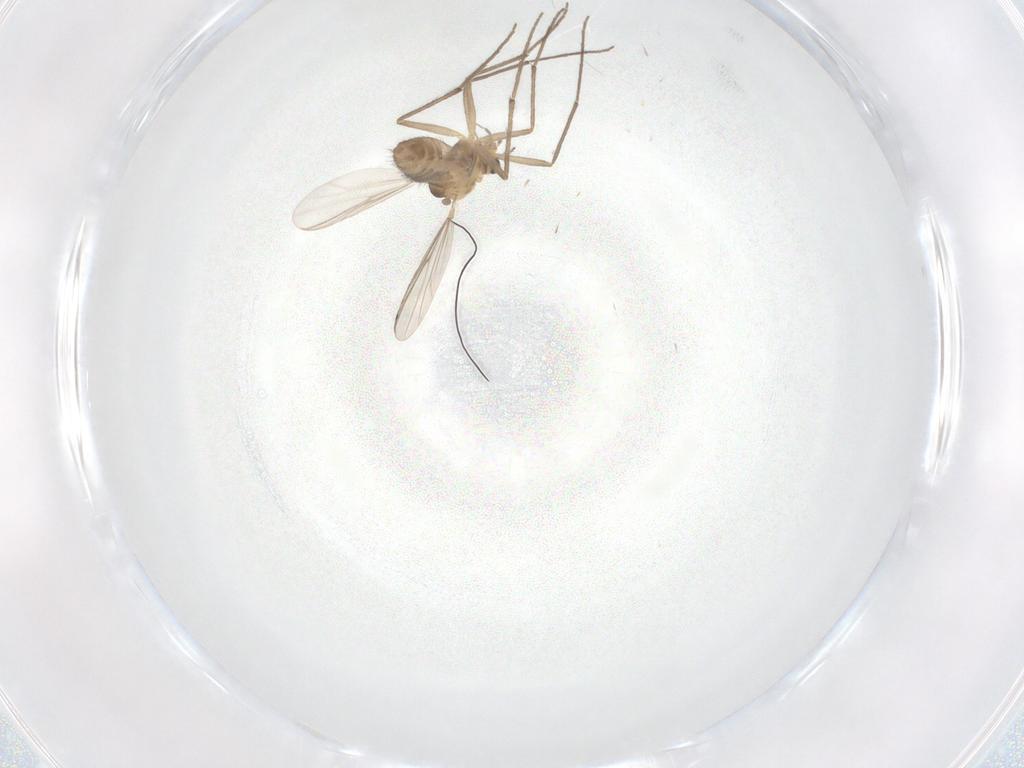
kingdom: Animalia
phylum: Arthropoda
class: Insecta
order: Diptera
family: Chironomidae
